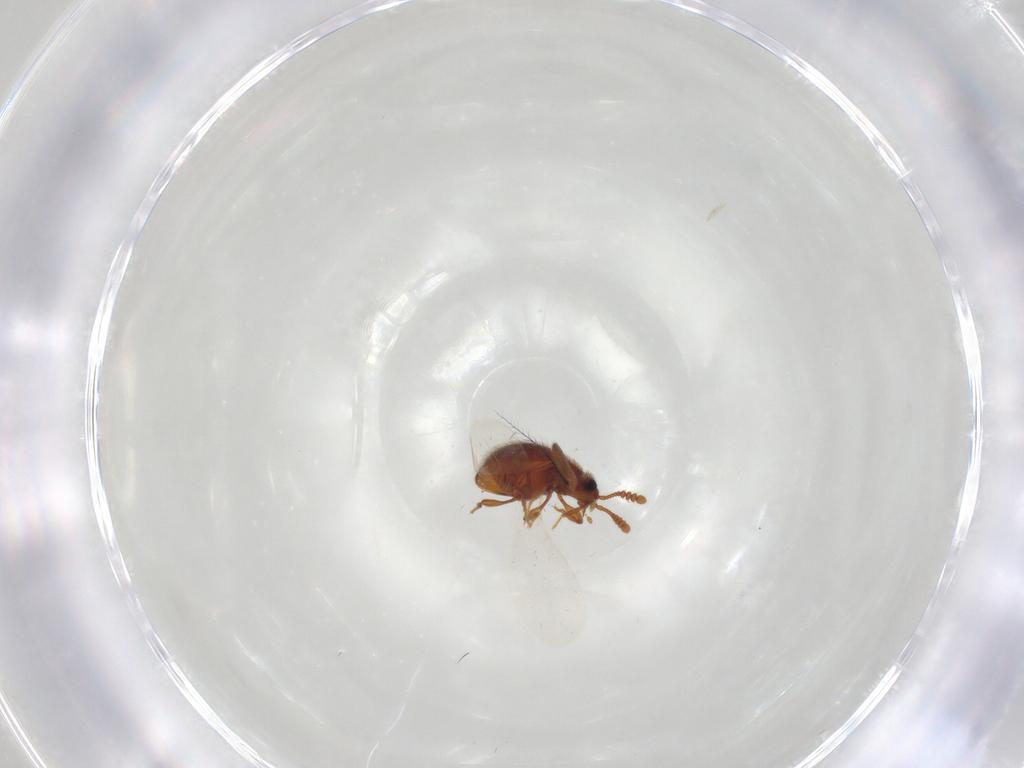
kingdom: Animalia
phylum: Arthropoda
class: Insecta
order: Coleoptera
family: Staphylinidae
